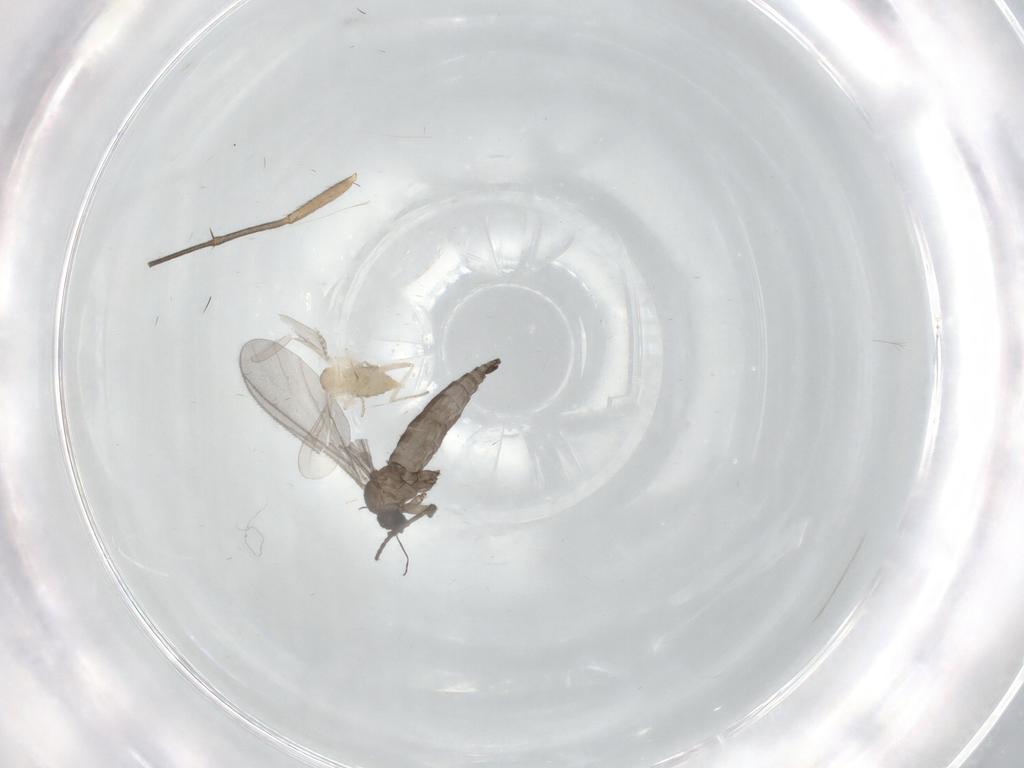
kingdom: Animalia
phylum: Arthropoda
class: Insecta
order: Diptera
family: Sciaridae
